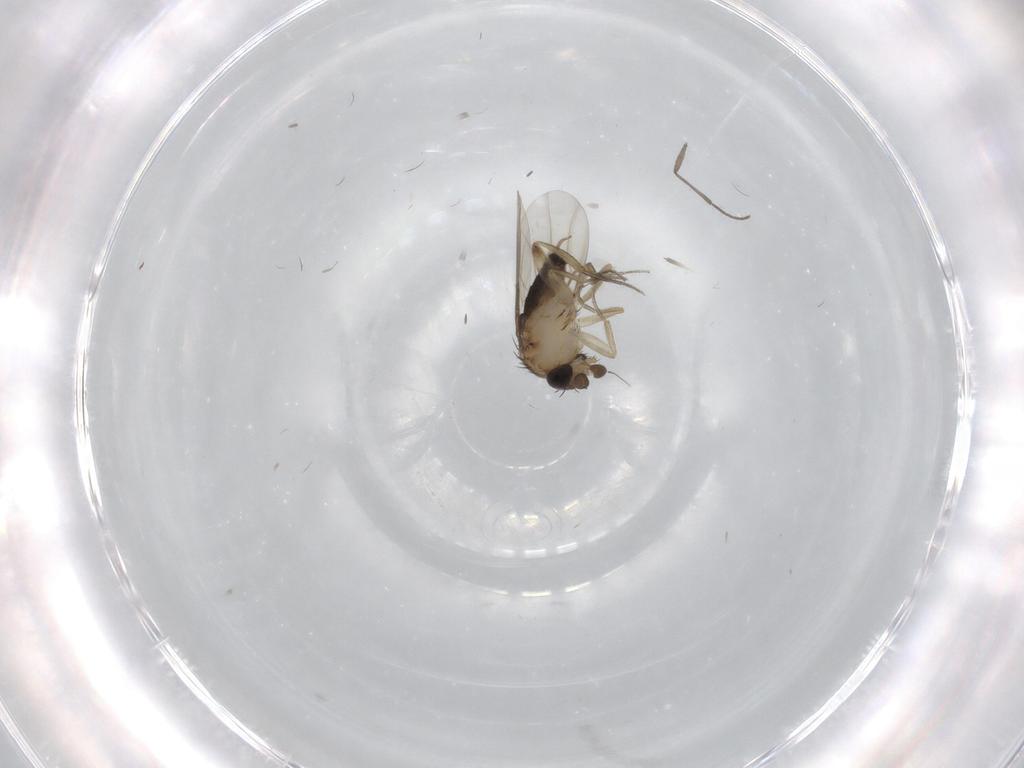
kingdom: Animalia
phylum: Arthropoda
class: Insecta
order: Diptera
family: Phoridae
